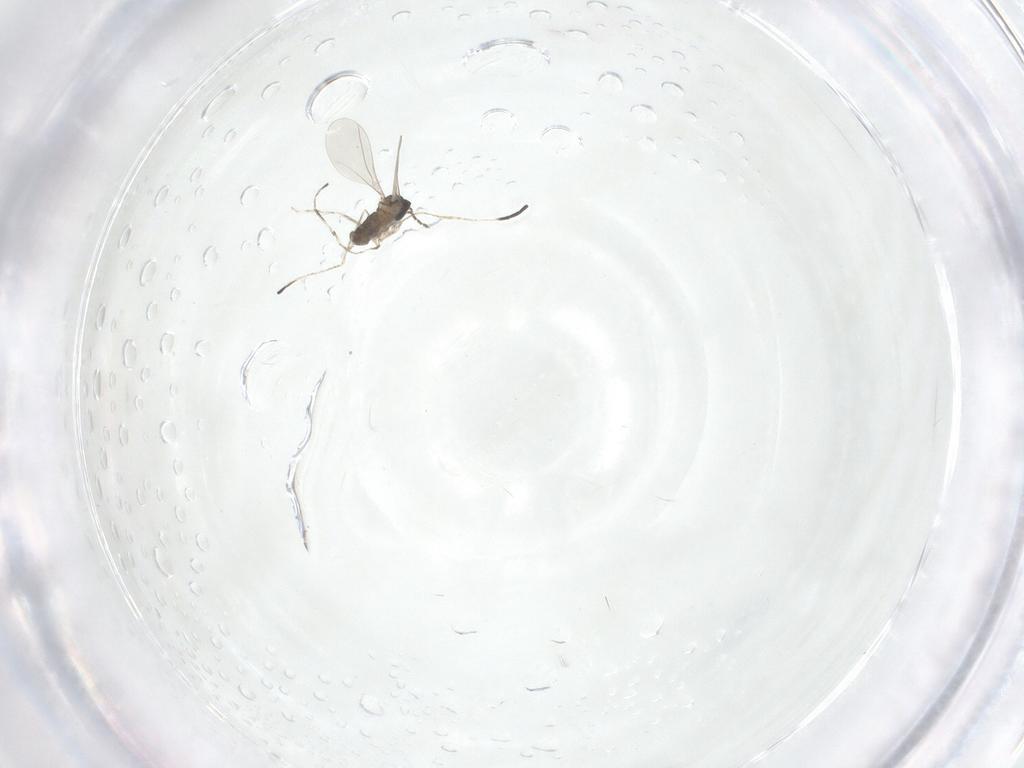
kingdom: Animalia
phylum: Arthropoda
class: Insecta
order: Diptera
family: Cecidomyiidae
